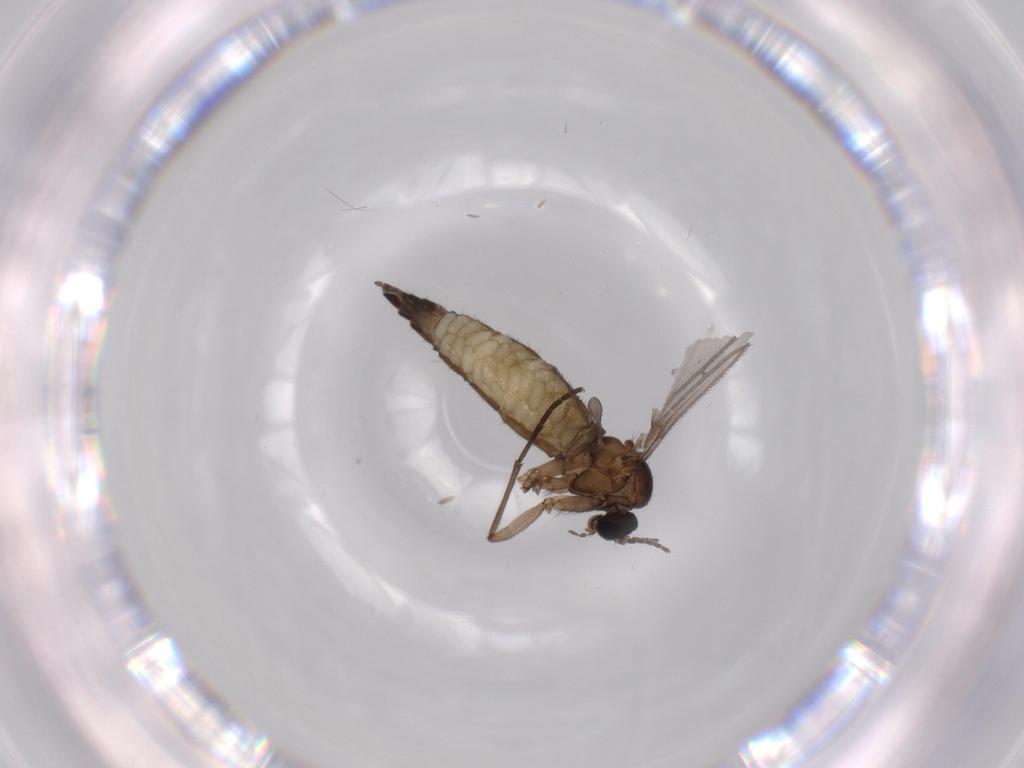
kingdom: Animalia
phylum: Arthropoda
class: Insecta
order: Diptera
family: Sciaridae
